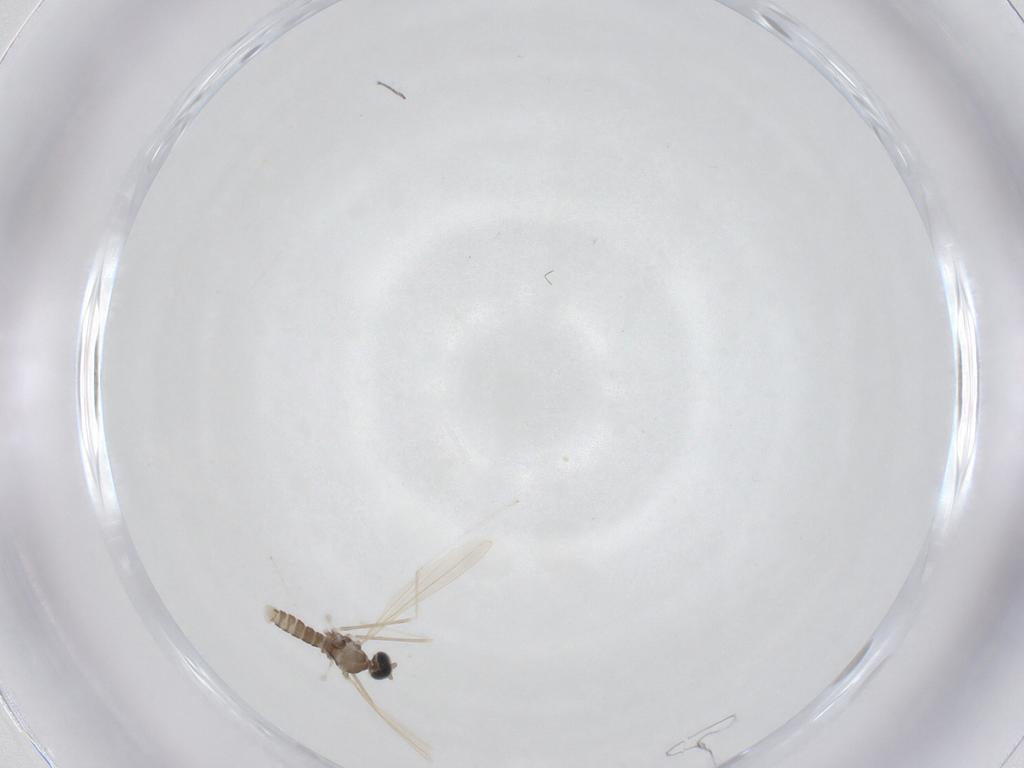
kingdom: Animalia
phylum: Arthropoda
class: Insecta
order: Diptera
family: Cecidomyiidae
